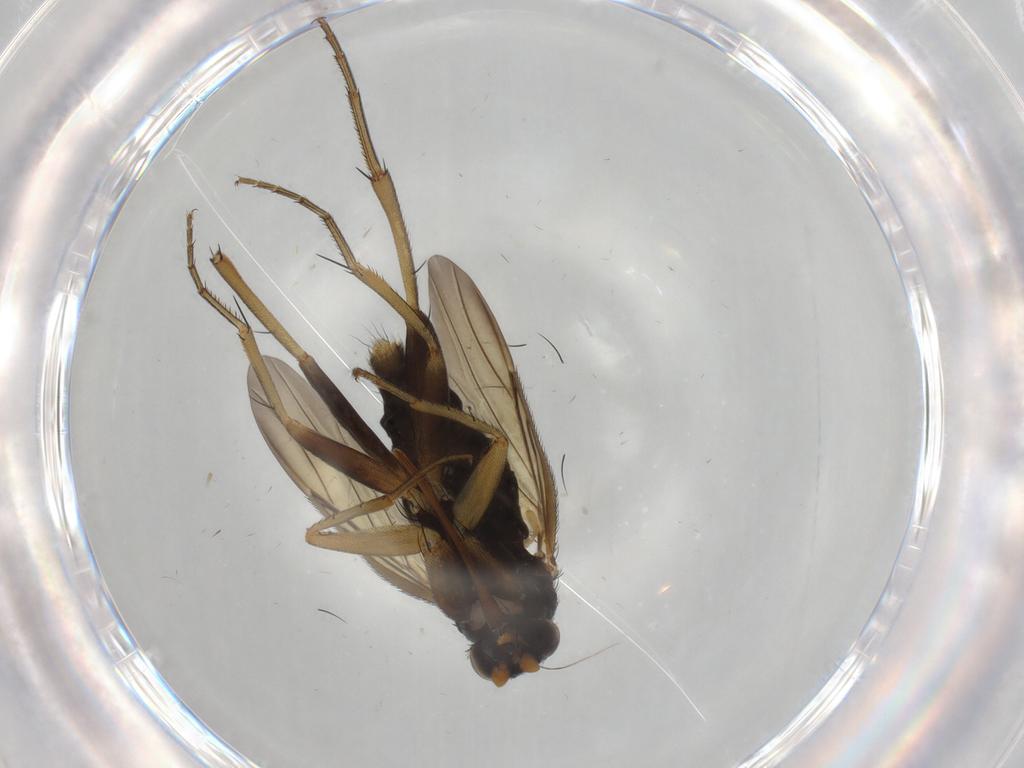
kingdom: Animalia
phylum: Arthropoda
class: Insecta
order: Diptera
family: Phoridae
